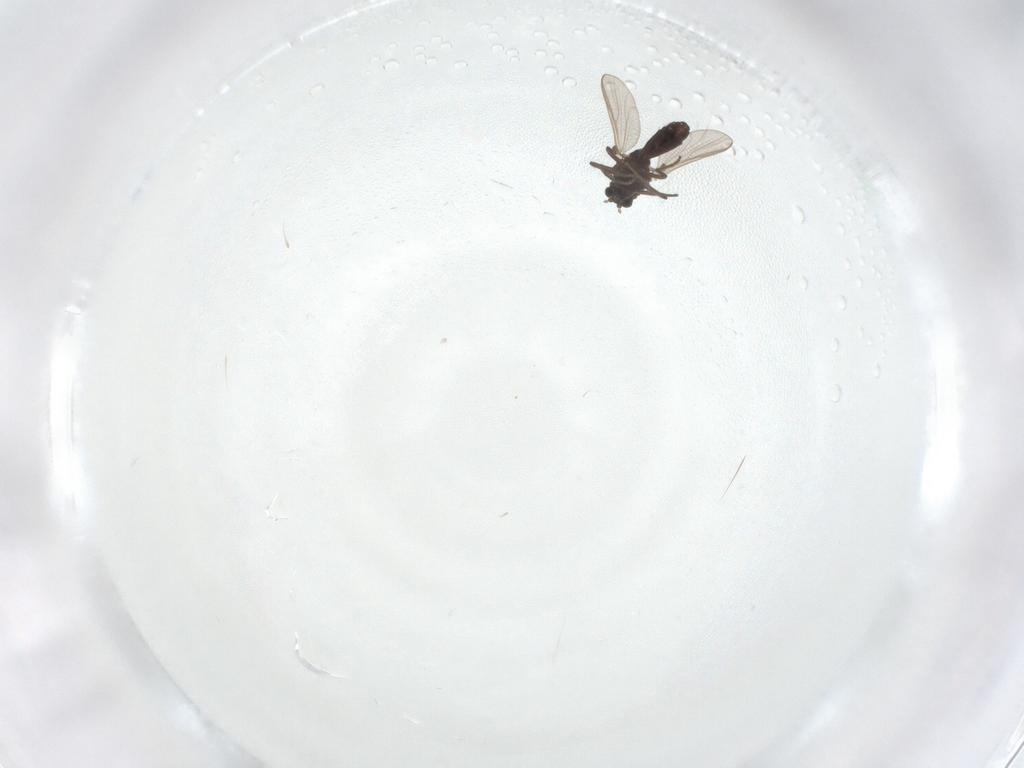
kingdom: Animalia
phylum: Arthropoda
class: Insecta
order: Diptera
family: Chironomidae
